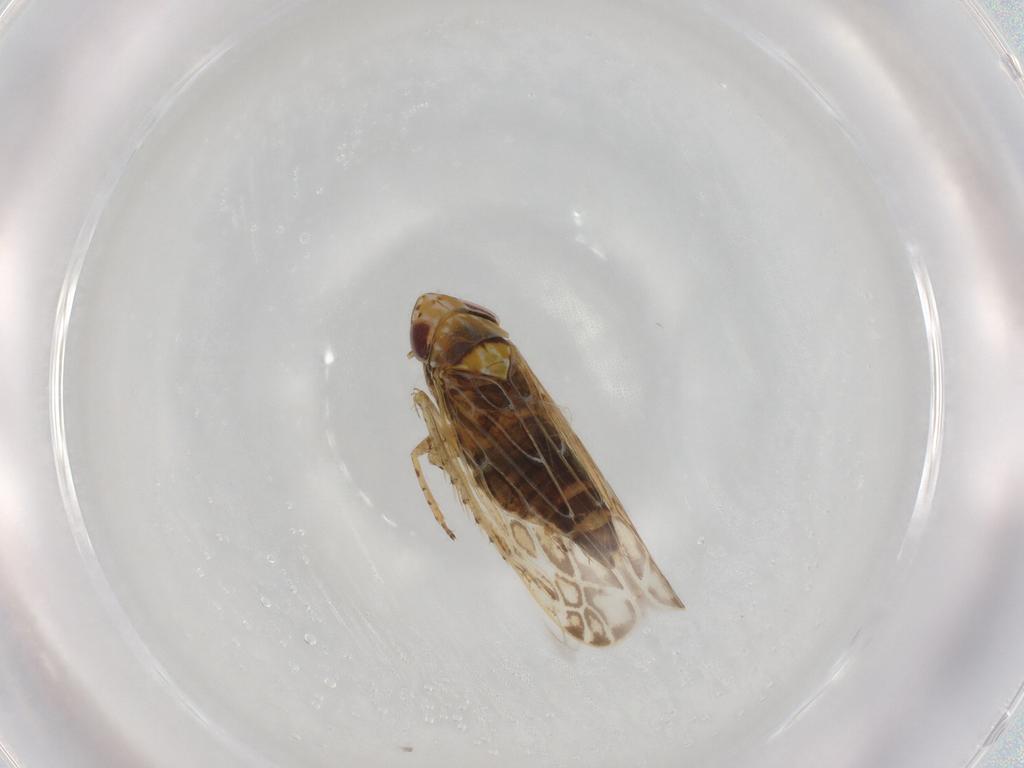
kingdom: Animalia
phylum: Arthropoda
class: Insecta
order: Hemiptera
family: Cicadellidae
